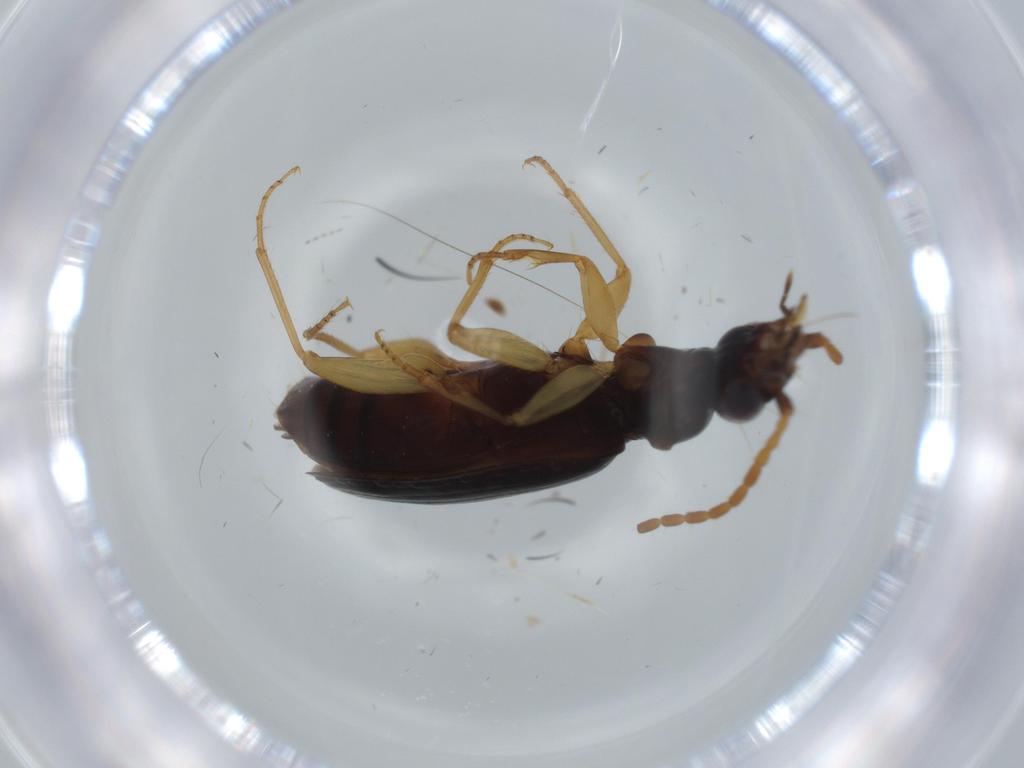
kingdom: Animalia
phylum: Arthropoda
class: Insecta
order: Coleoptera
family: Carabidae
